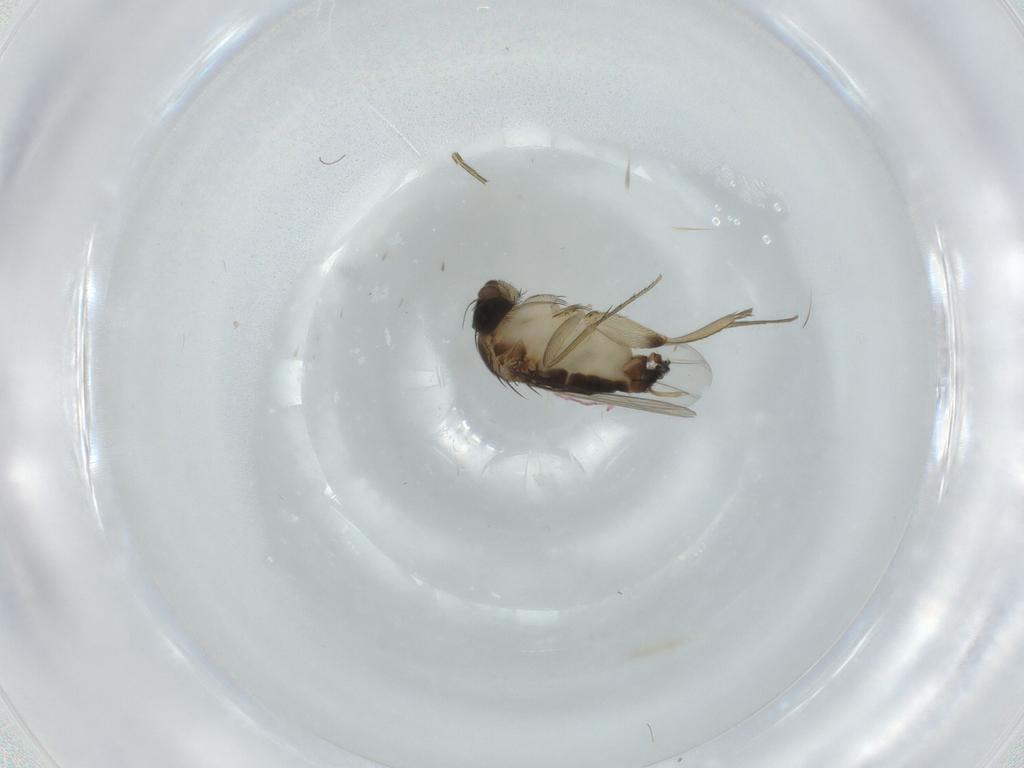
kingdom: Animalia
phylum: Arthropoda
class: Insecta
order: Diptera
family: Phoridae
